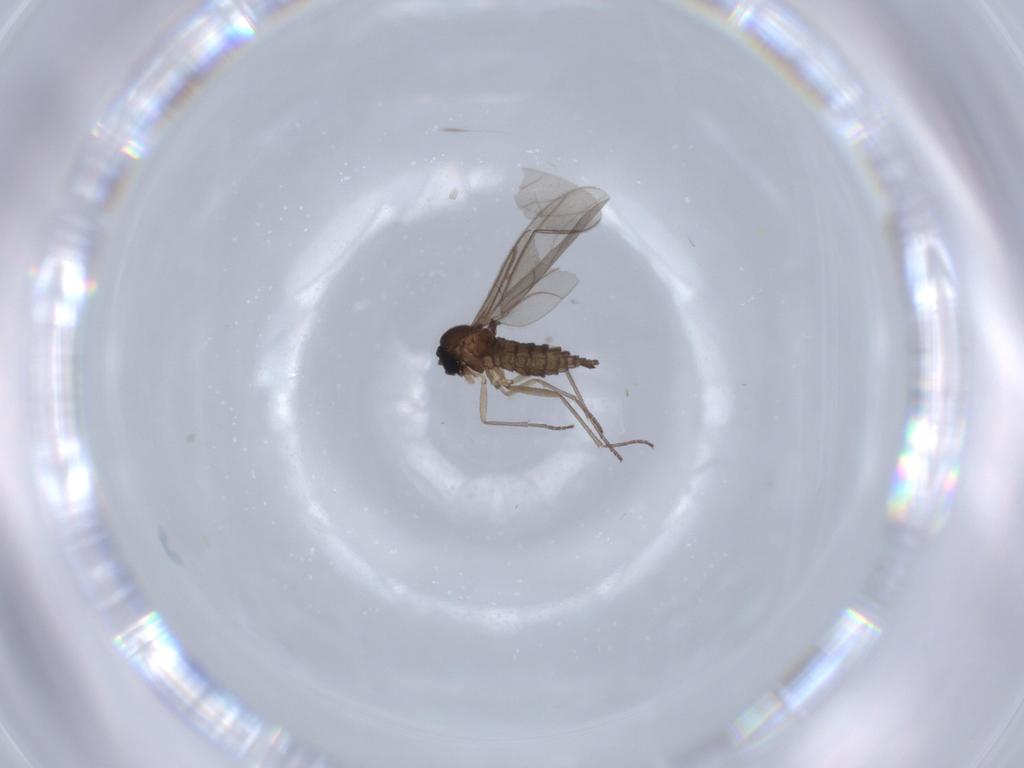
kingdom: Animalia
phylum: Arthropoda
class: Insecta
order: Diptera
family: Sciaridae
